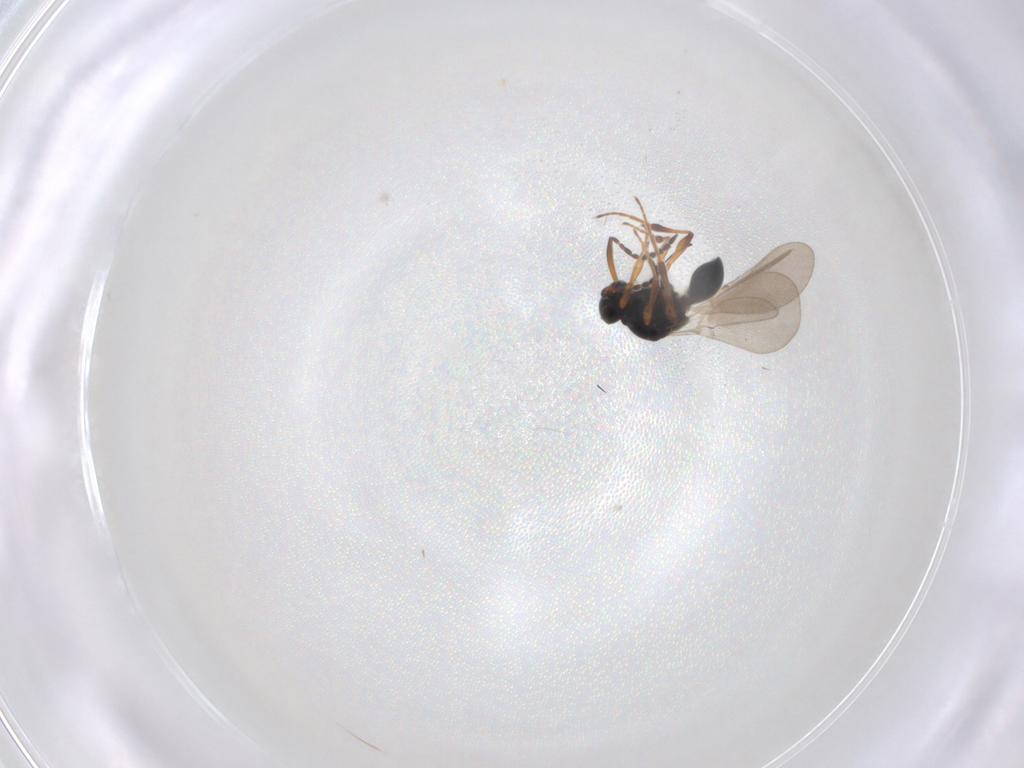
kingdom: Animalia
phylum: Arthropoda
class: Insecta
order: Hymenoptera
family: Platygastridae
